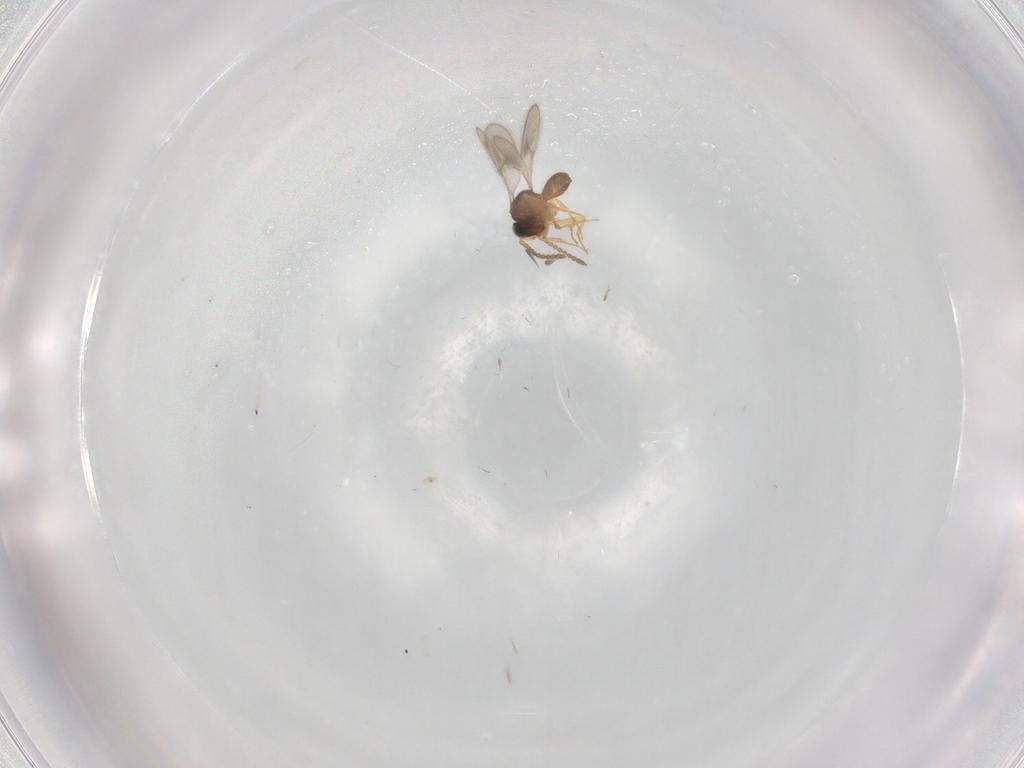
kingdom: Animalia
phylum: Arthropoda
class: Insecta
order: Hymenoptera
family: Scelionidae
